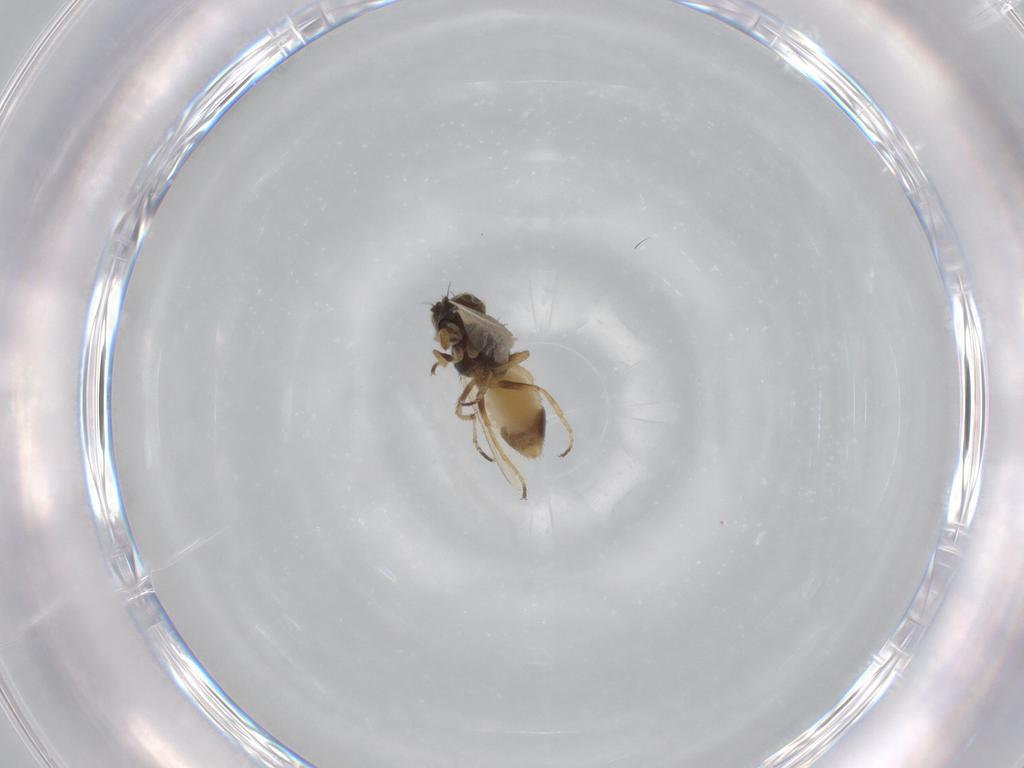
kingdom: Animalia
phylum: Arthropoda
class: Insecta
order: Diptera
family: Ephydridae
